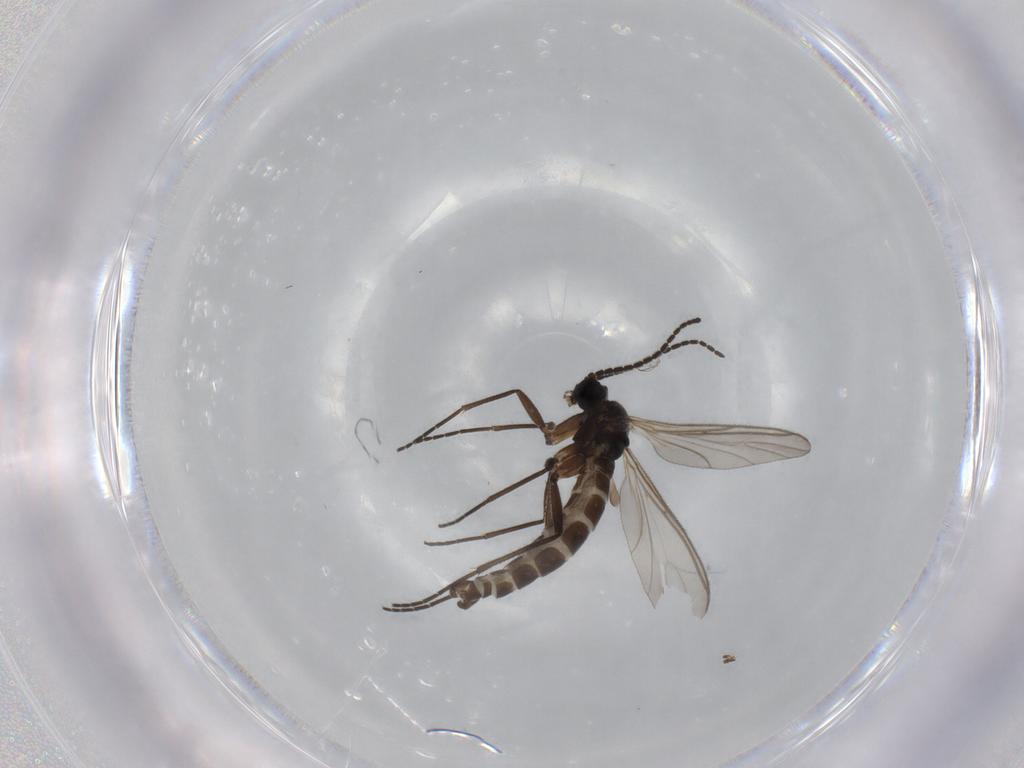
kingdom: Animalia
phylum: Arthropoda
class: Insecta
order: Diptera
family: Sciaridae
